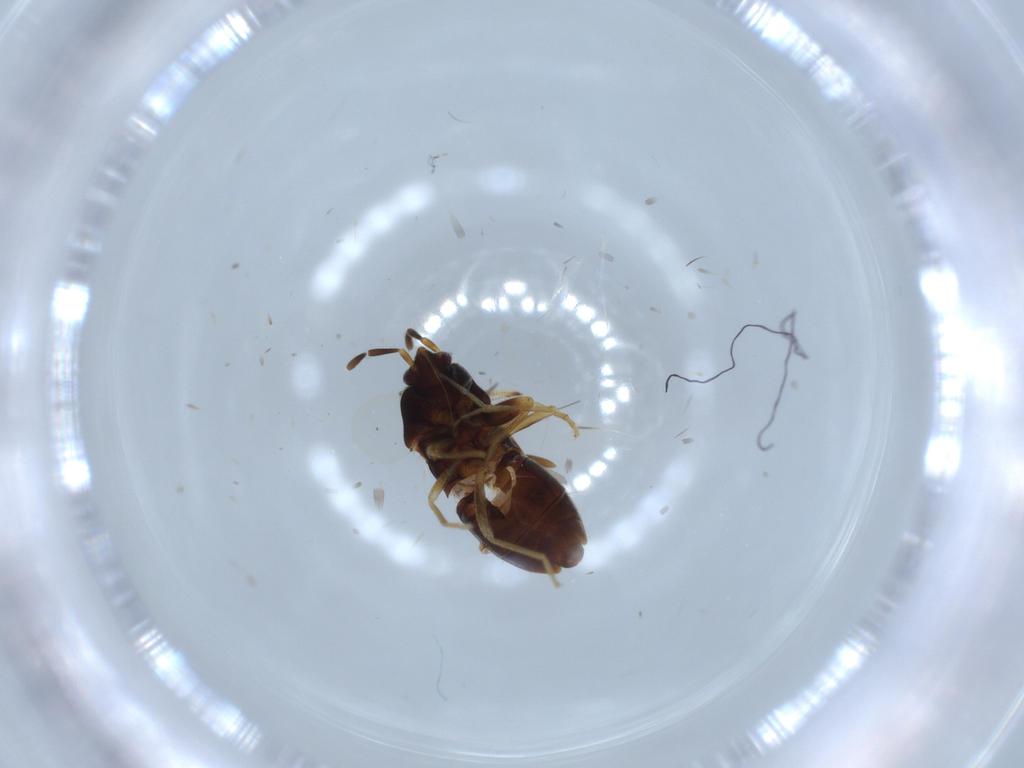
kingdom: Animalia
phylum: Arthropoda
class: Insecta
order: Hemiptera
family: Rhyparochromidae
